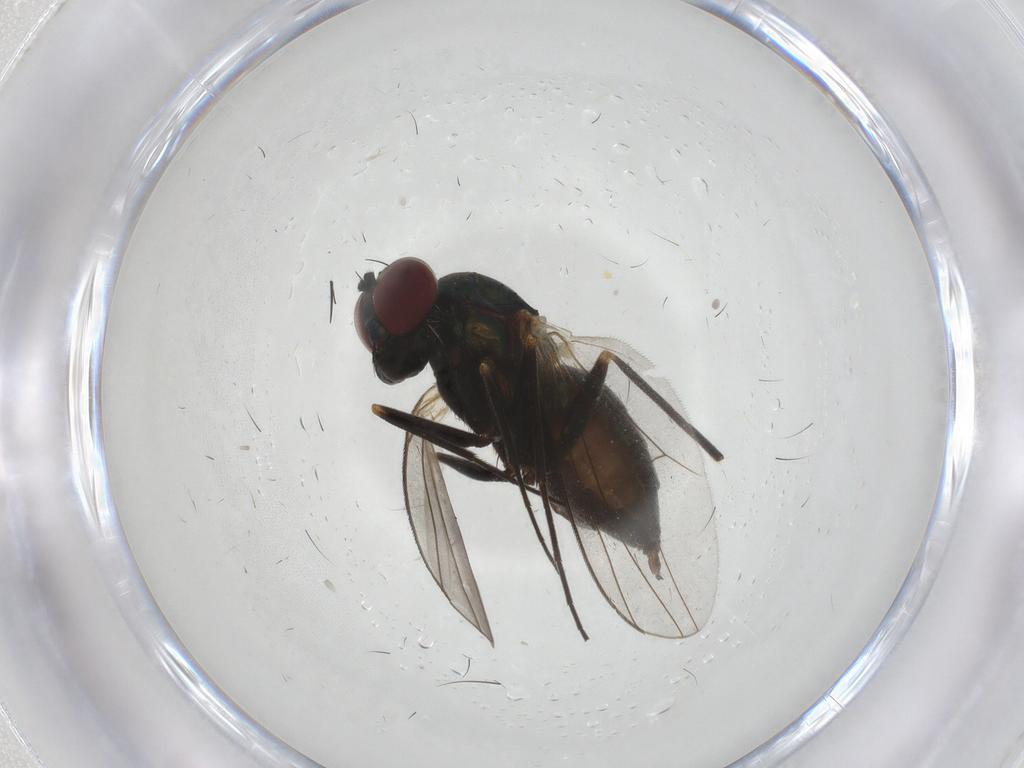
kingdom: Animalia
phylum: Arthropoda
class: Insecta
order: Diptera
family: Dolichopodidae
